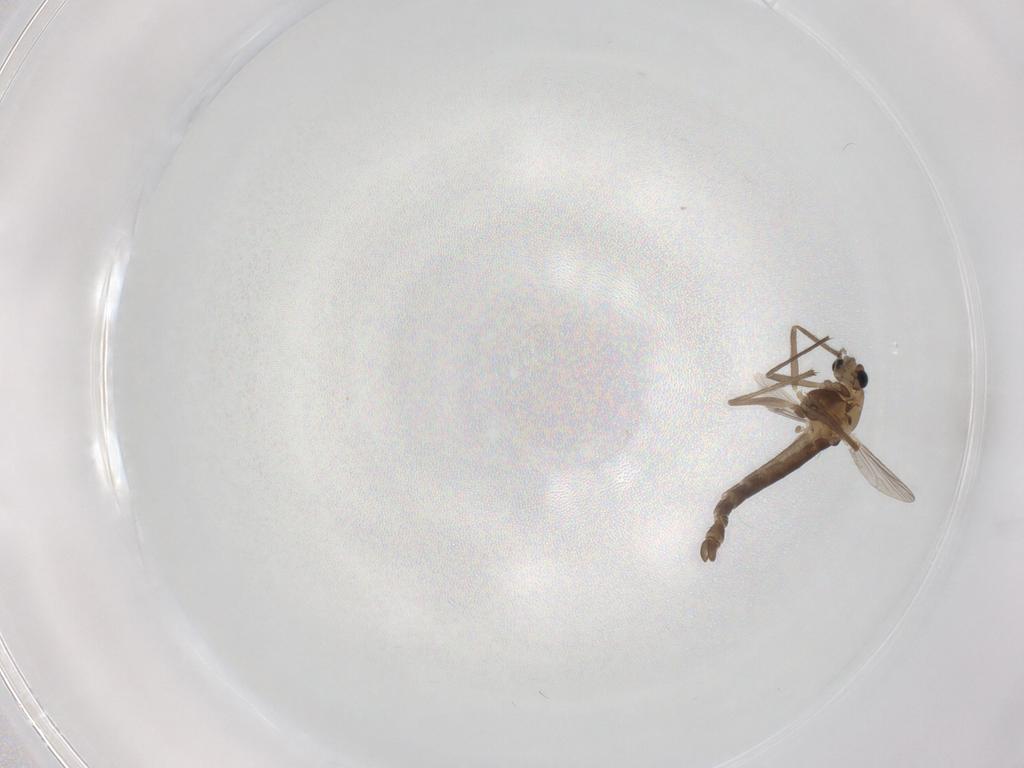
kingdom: Animalia
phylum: Arthropoda
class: Insecta
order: Diptera
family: Chironomidae
